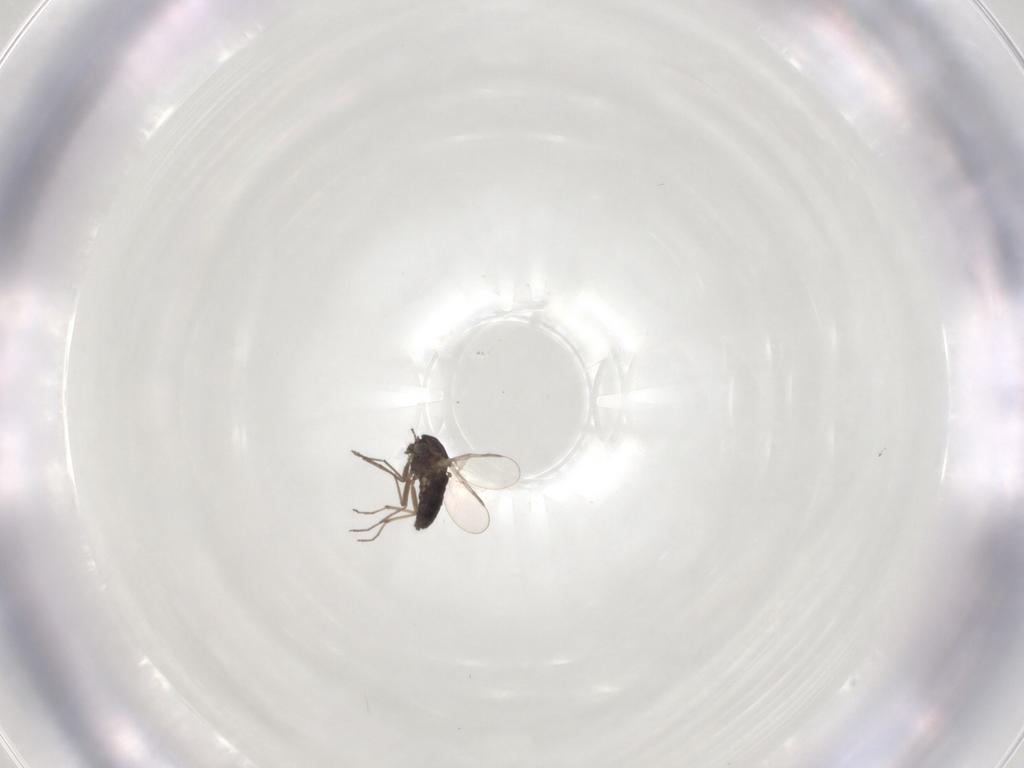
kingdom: Animalia
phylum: Arthropoda
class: Insecta
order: Diptera
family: Chironomidae
